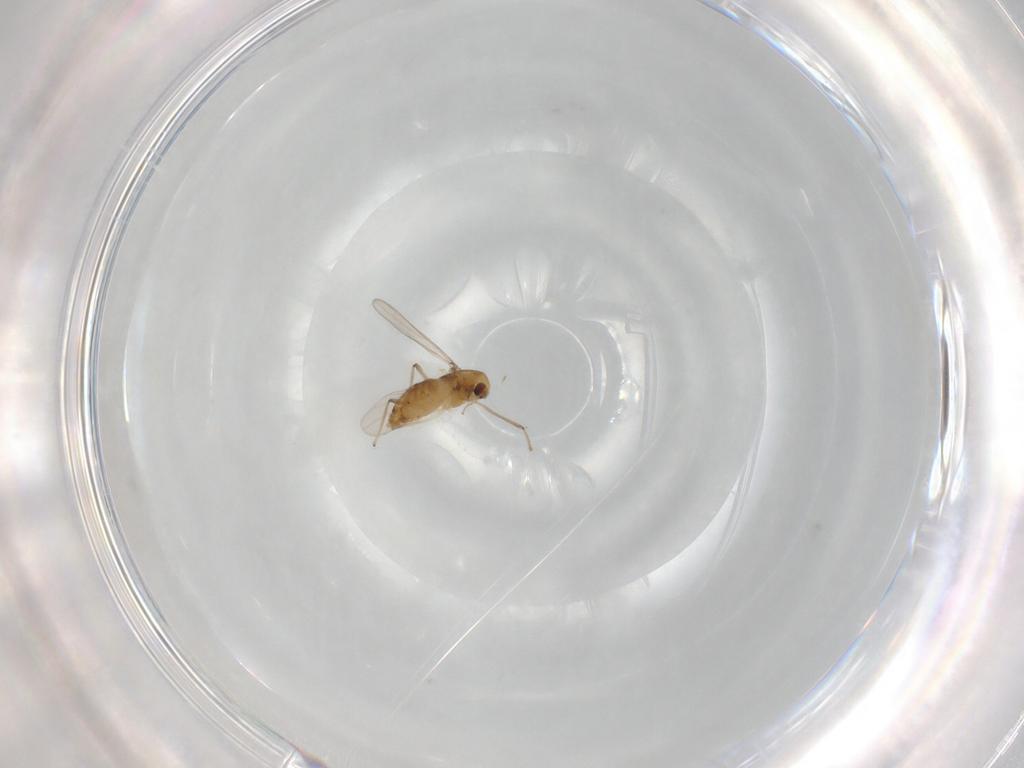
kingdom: Animalia
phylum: Arthropoda
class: Insecta
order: Diptera
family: Chironomidae
